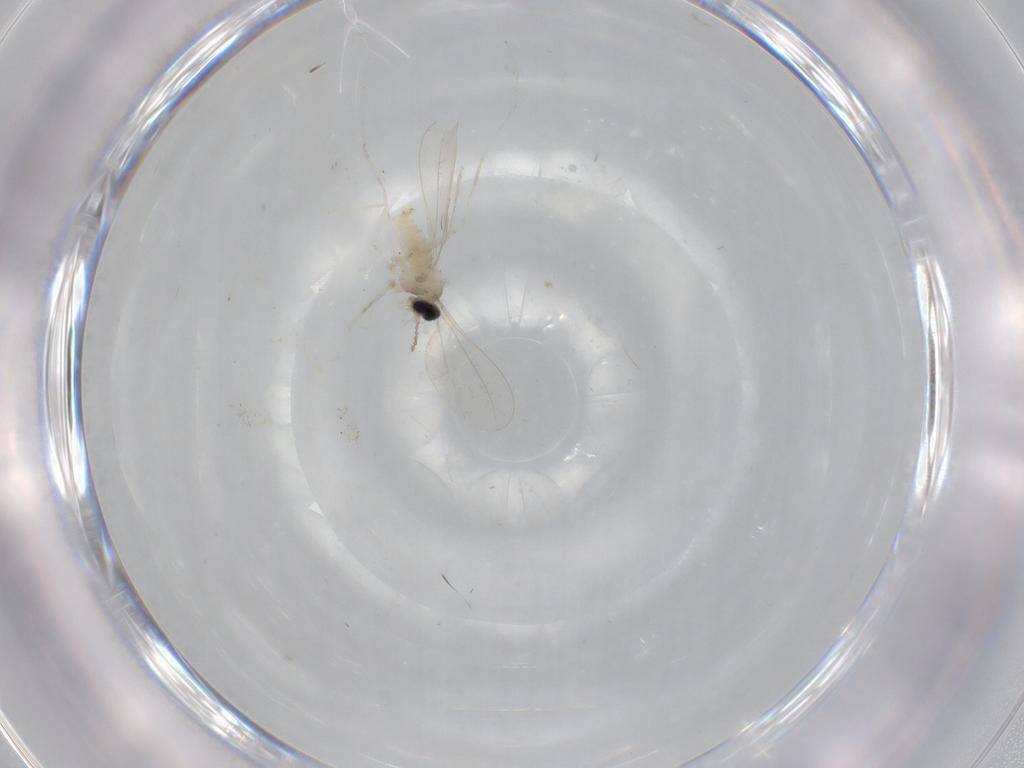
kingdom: Animalia
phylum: Arthropoda
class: Insecta
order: Diptera
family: Cecidomyiidae
